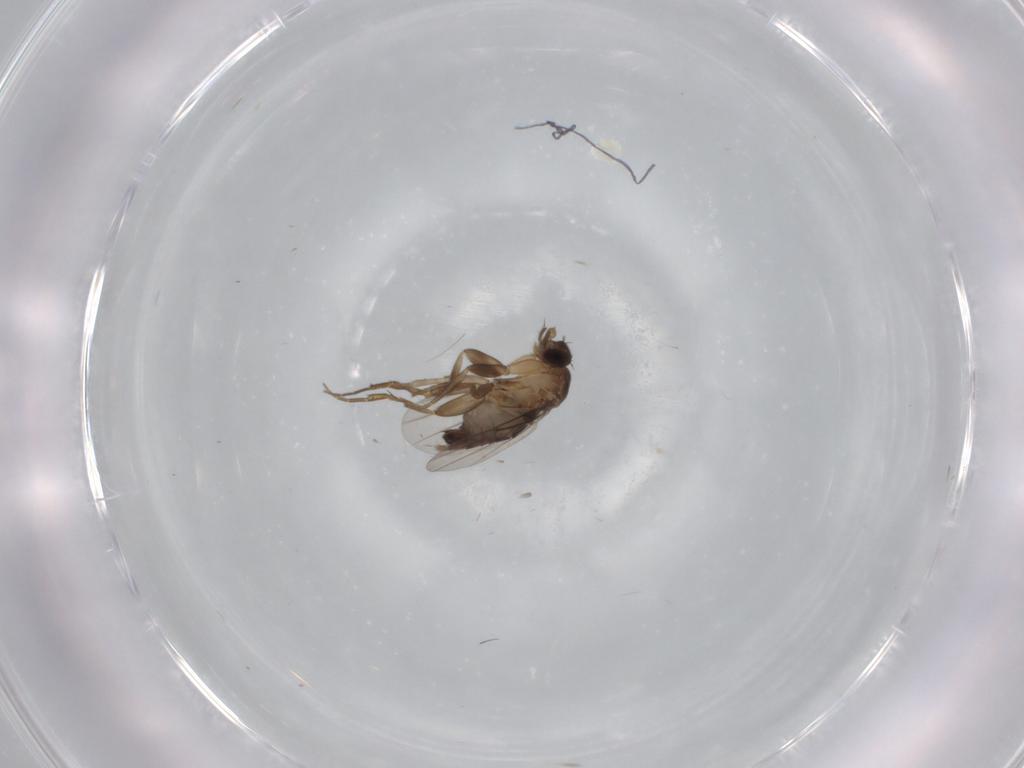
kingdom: Animalia
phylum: Arthropoda
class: Insecta
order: Diptera
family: Phoridae
